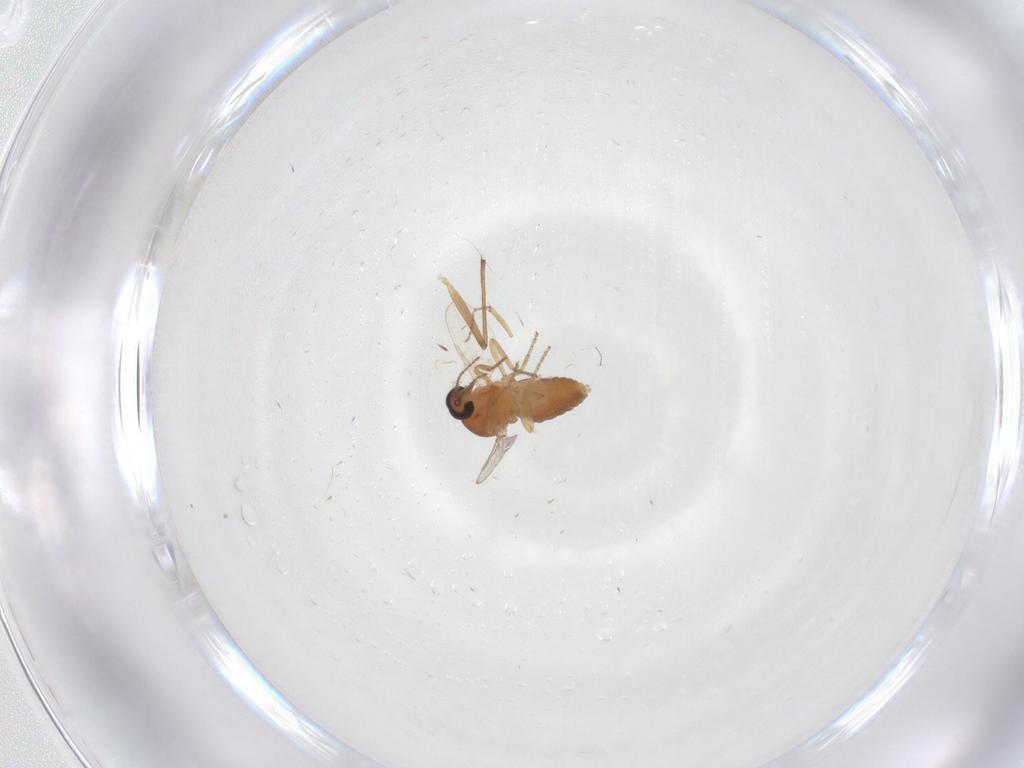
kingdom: Animalia
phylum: Arthropoda
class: Insecta
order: Diptera
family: Ceratopogonidae
